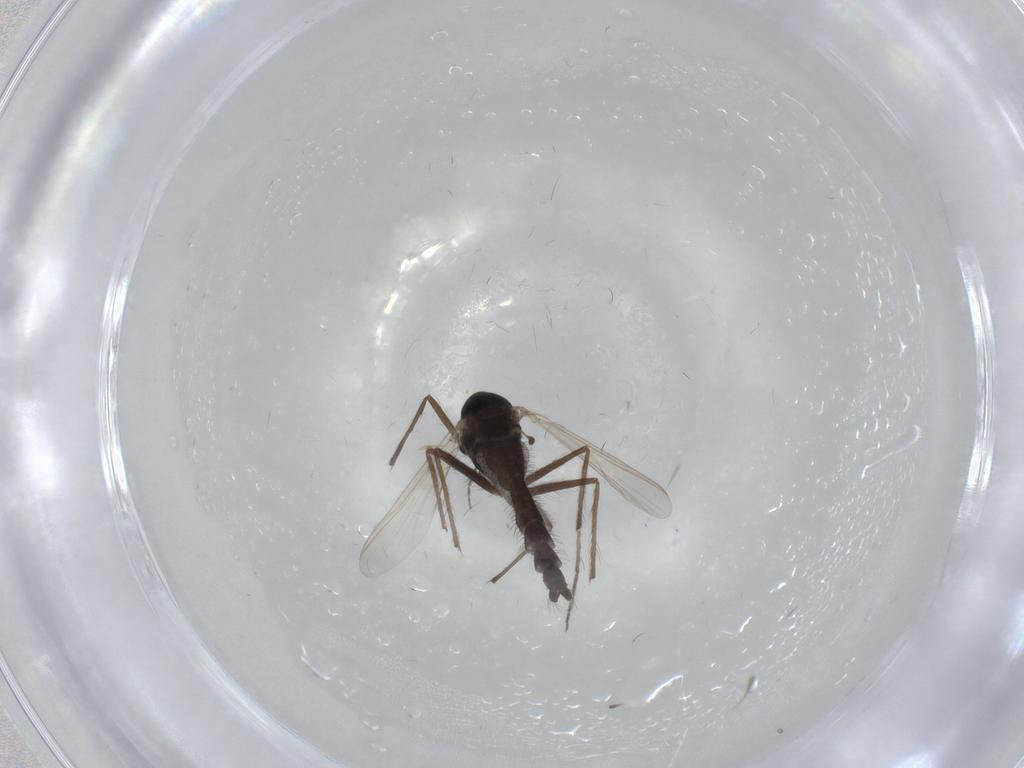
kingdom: Animalia
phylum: Arthropoda
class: Insecta
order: Diptera
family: Chironomidae
